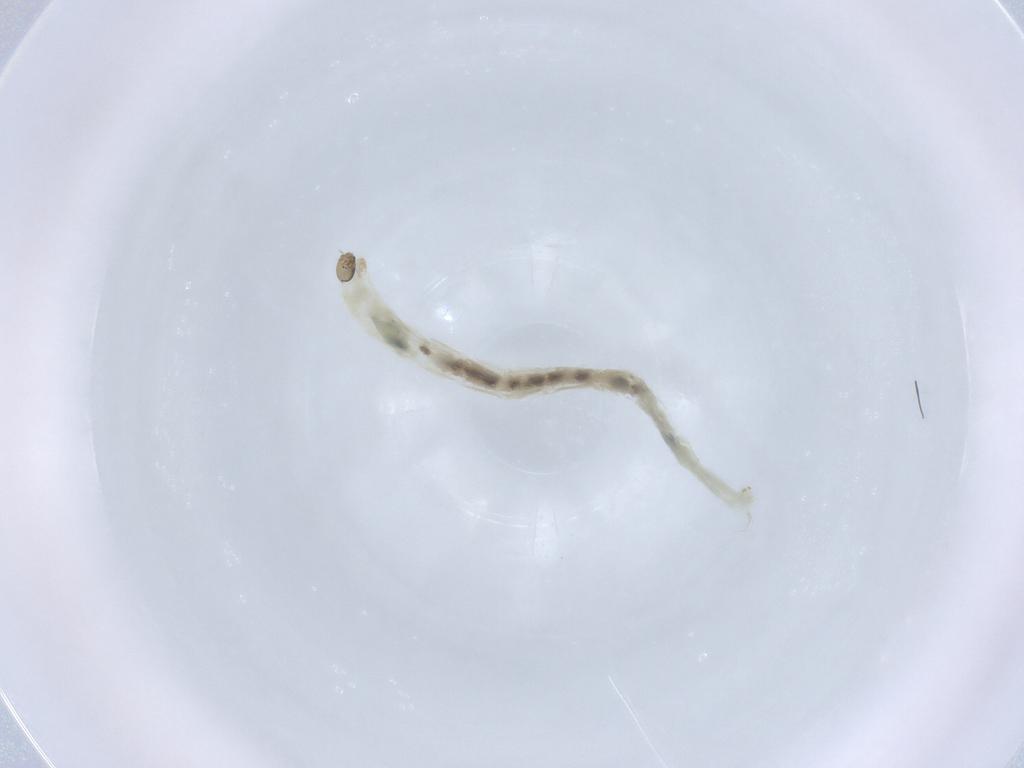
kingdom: Animalia
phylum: Arthropoda
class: Insecta
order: Diptera
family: Chironomidae
